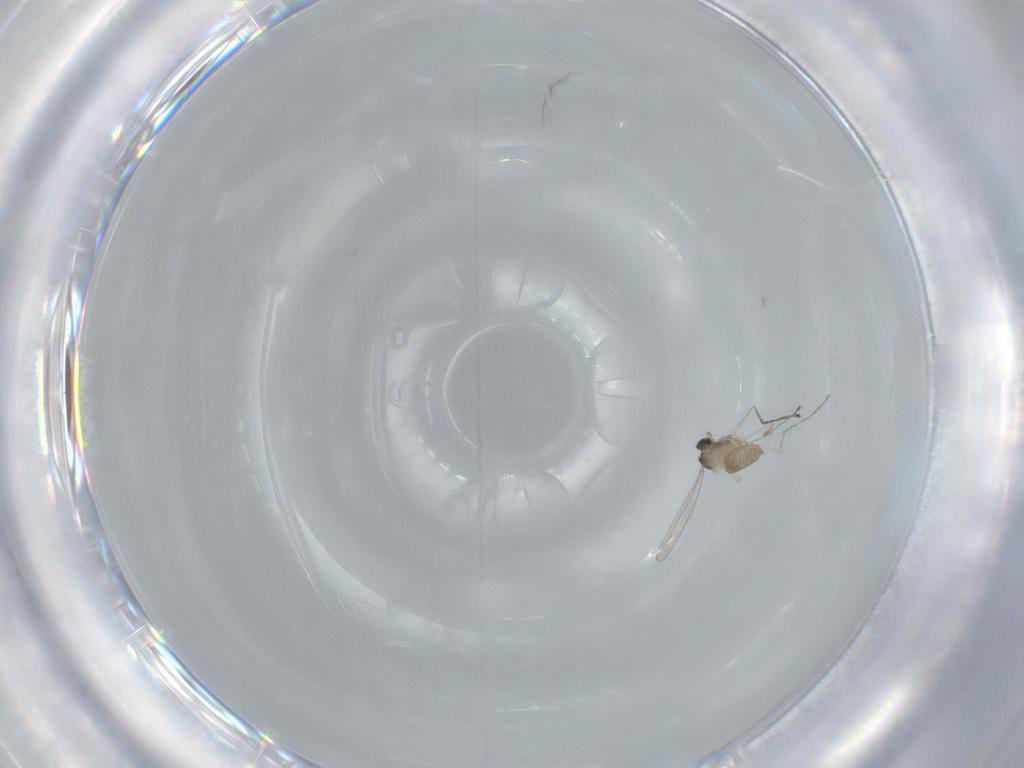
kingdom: Animalia
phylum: Arthropoda
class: Insecta
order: Diptera
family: Cecidomyiidae
